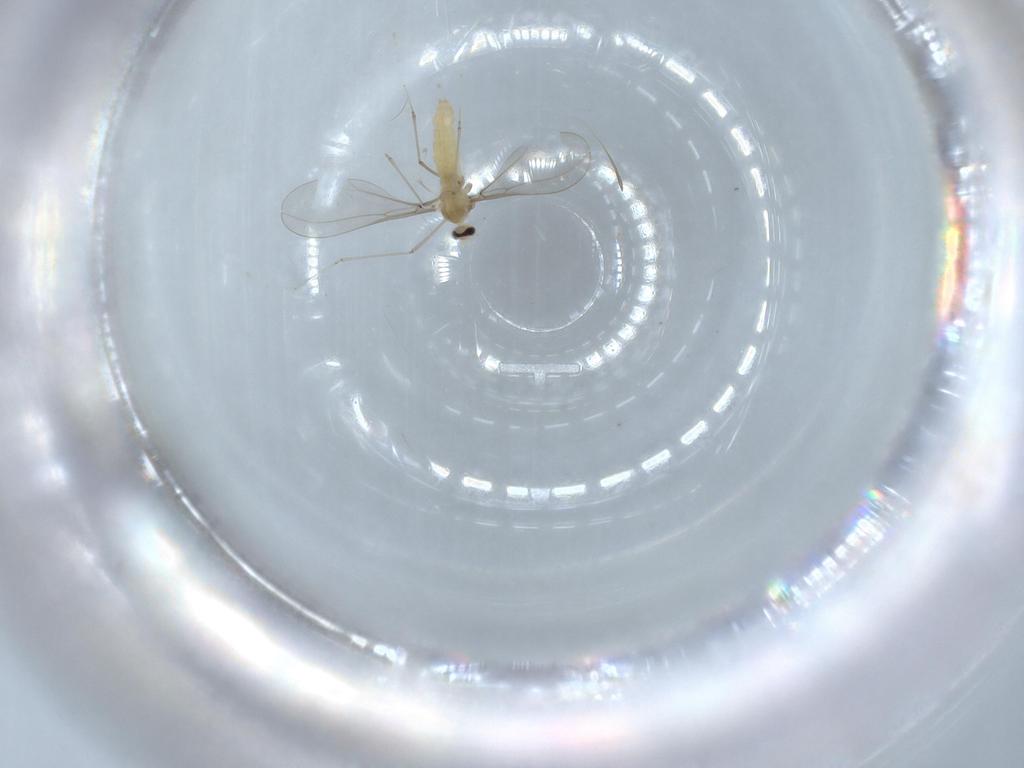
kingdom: Animalia
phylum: Arthropoda
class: Insecta
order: Diptera
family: Cecidomyiidae
